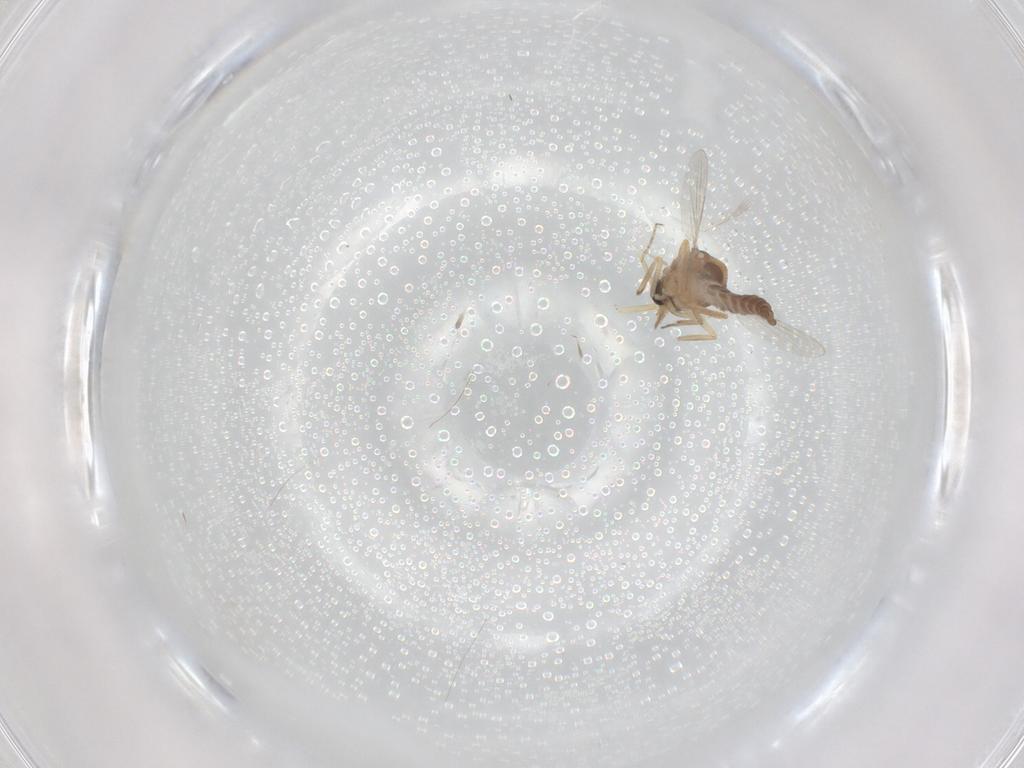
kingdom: Animalia
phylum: Arthropoda
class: Insecta
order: Diptera
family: Ceratopogonidae
